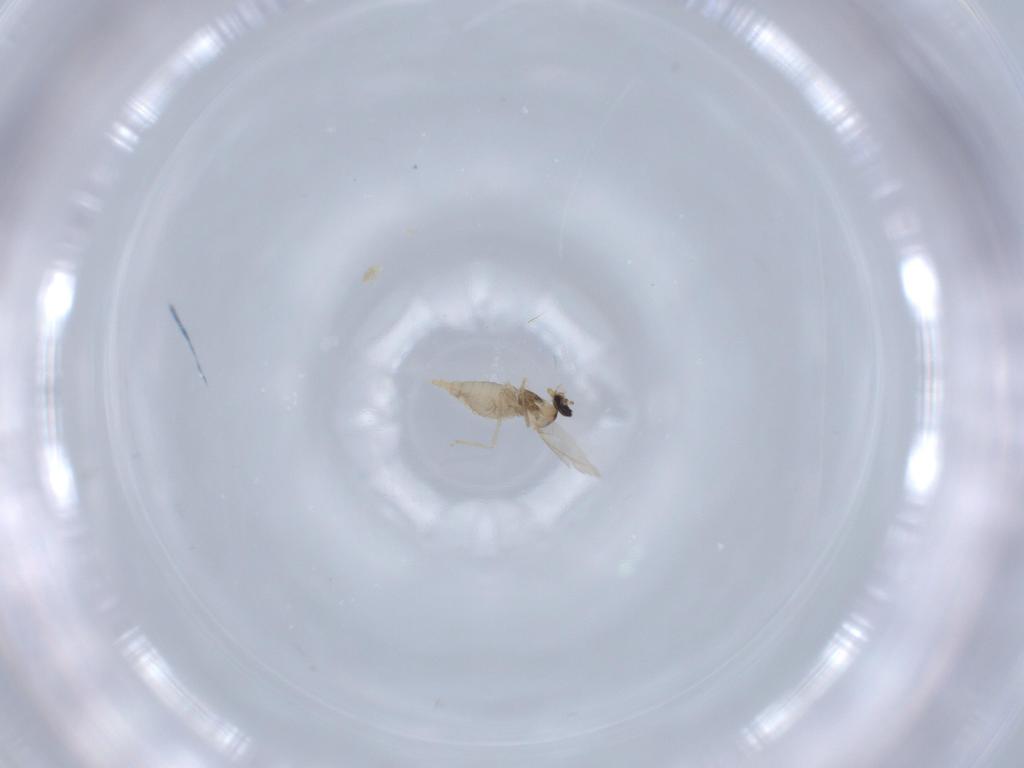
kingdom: Animalia
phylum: Arthropoda
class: Insecta
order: Diptera
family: Cecidomyiidae
